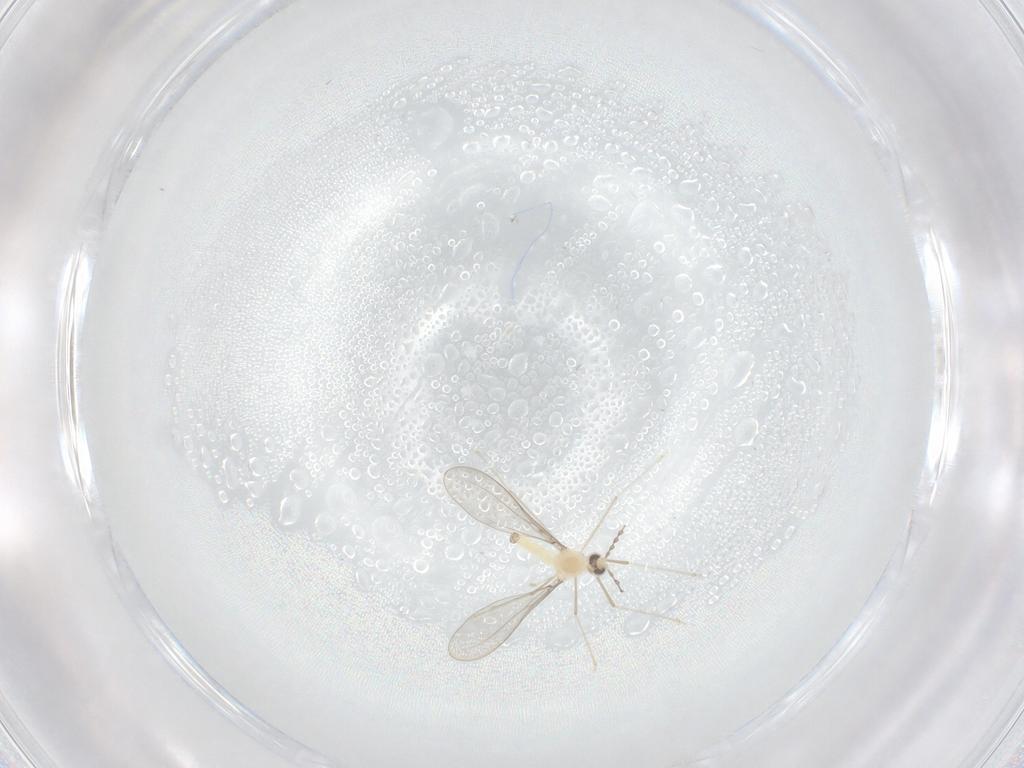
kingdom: Animalia
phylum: Arthropoda
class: Insecta
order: Diptera
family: Cecidomyiidae
